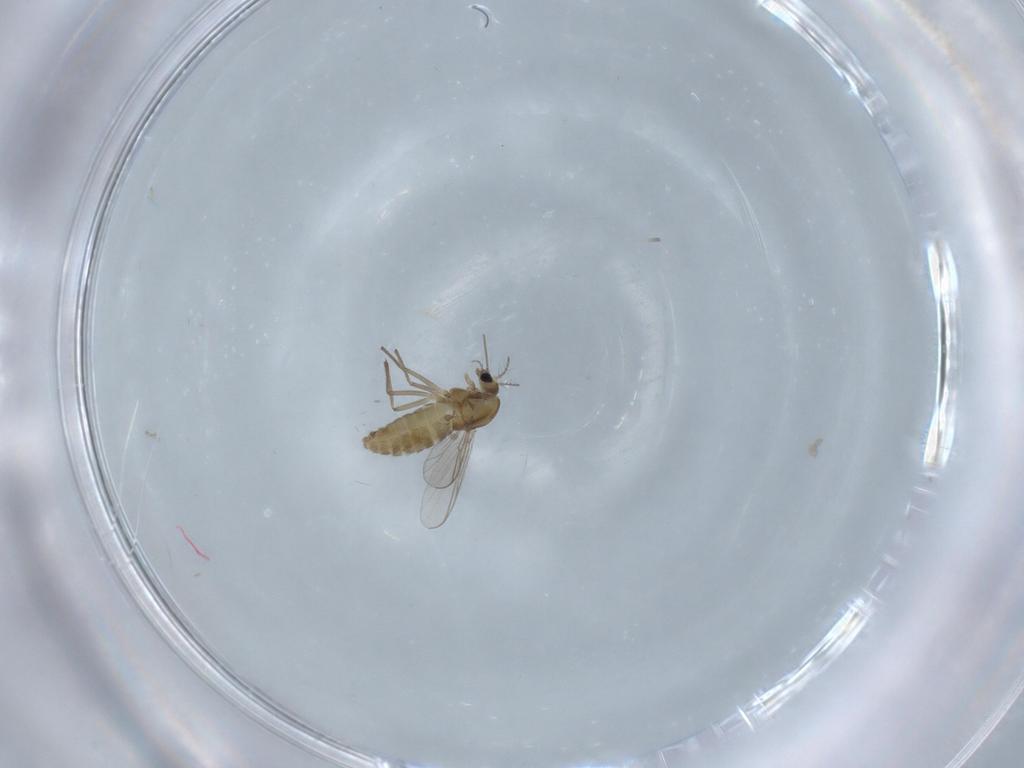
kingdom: Animalia
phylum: Arthropoda
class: Insecta
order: Diptera
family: Chironomidae
